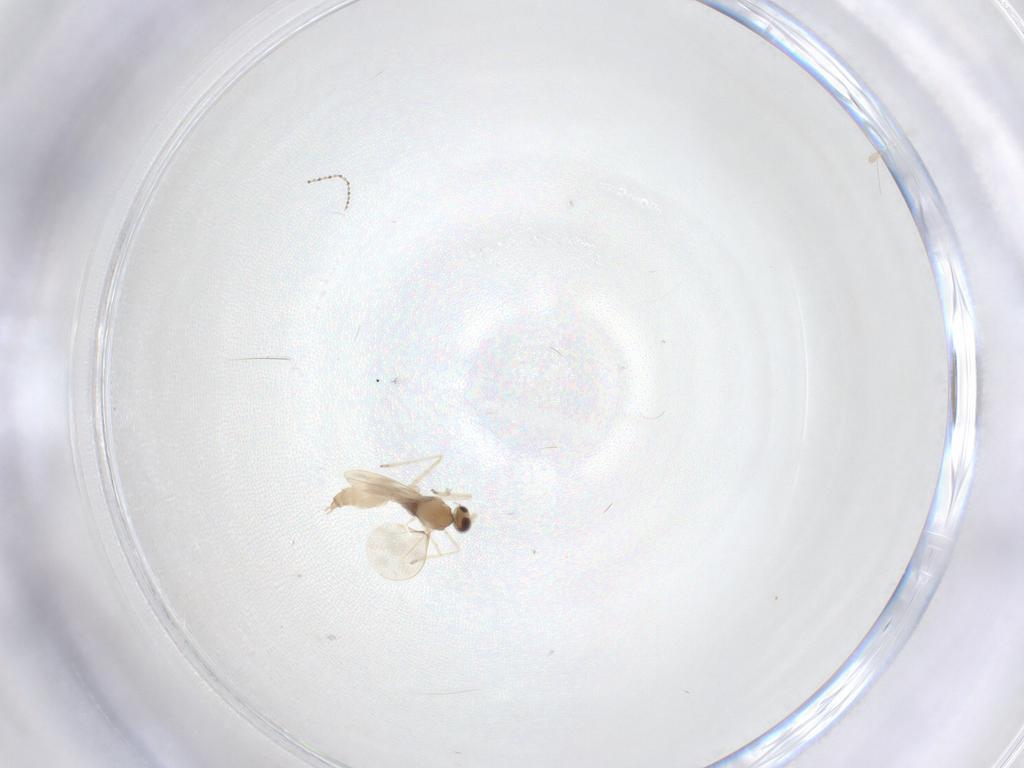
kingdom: Animalia
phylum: Arthropoda
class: Insecta
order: Diptera
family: Cecidomyiidae
